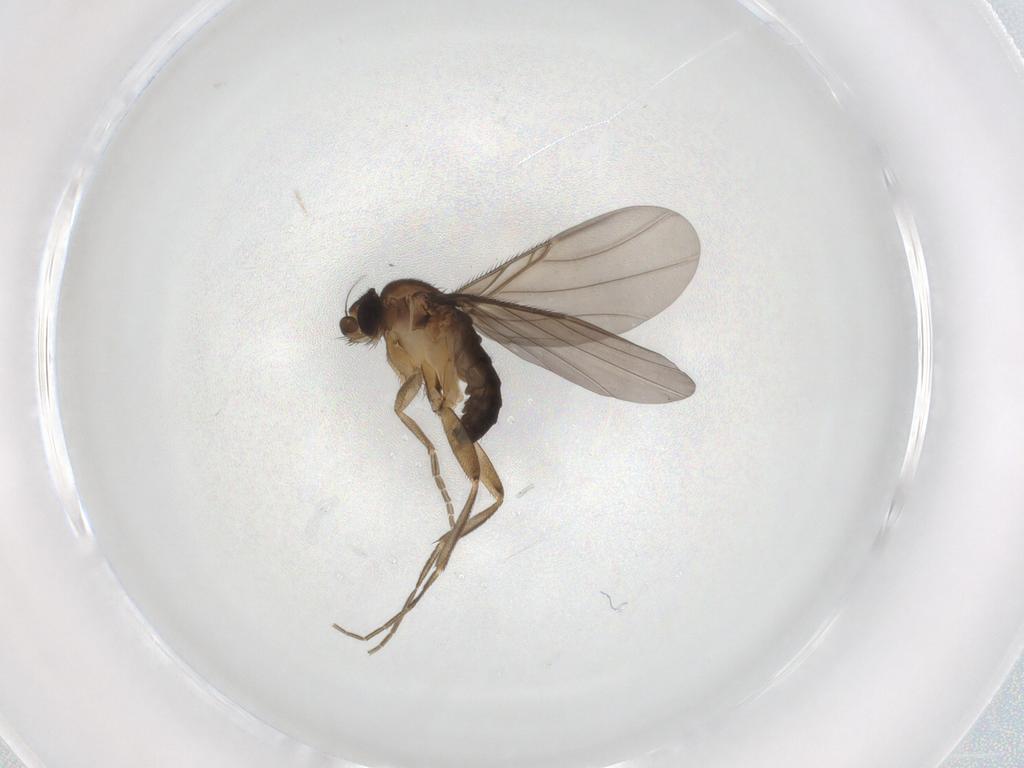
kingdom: Animalia
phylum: Arthropoda
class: Insecta
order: Diptera
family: Phoridae
